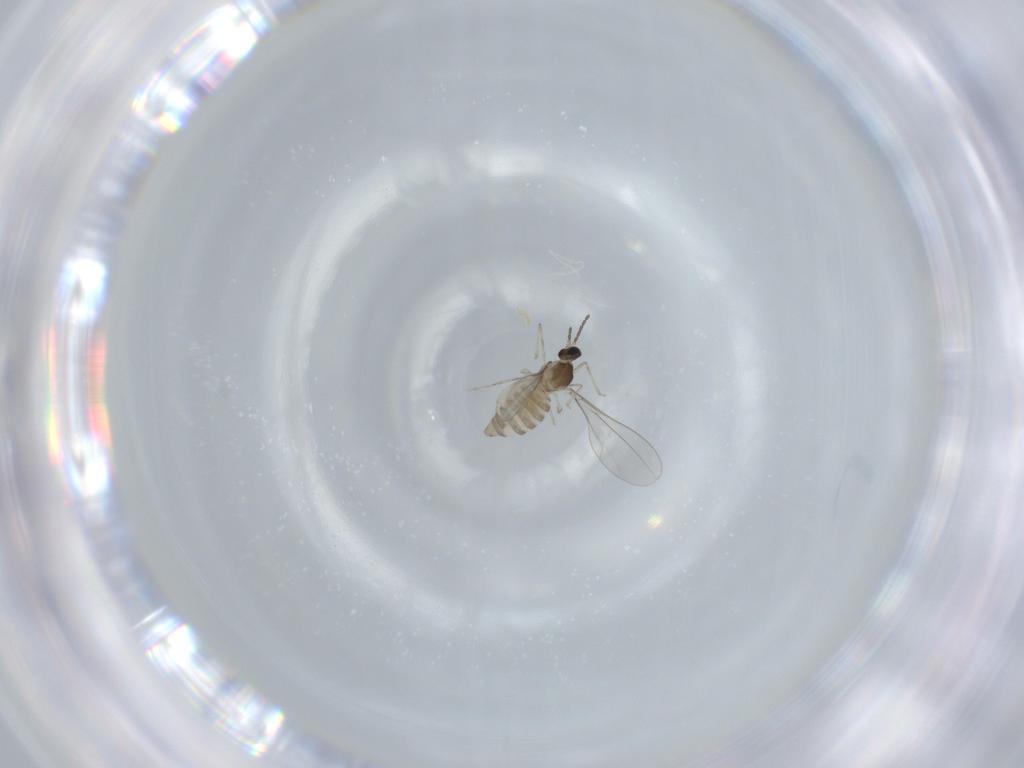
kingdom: Animalia
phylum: Arthropoda
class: Insecta
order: Diptera
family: Cecidomyiidae
